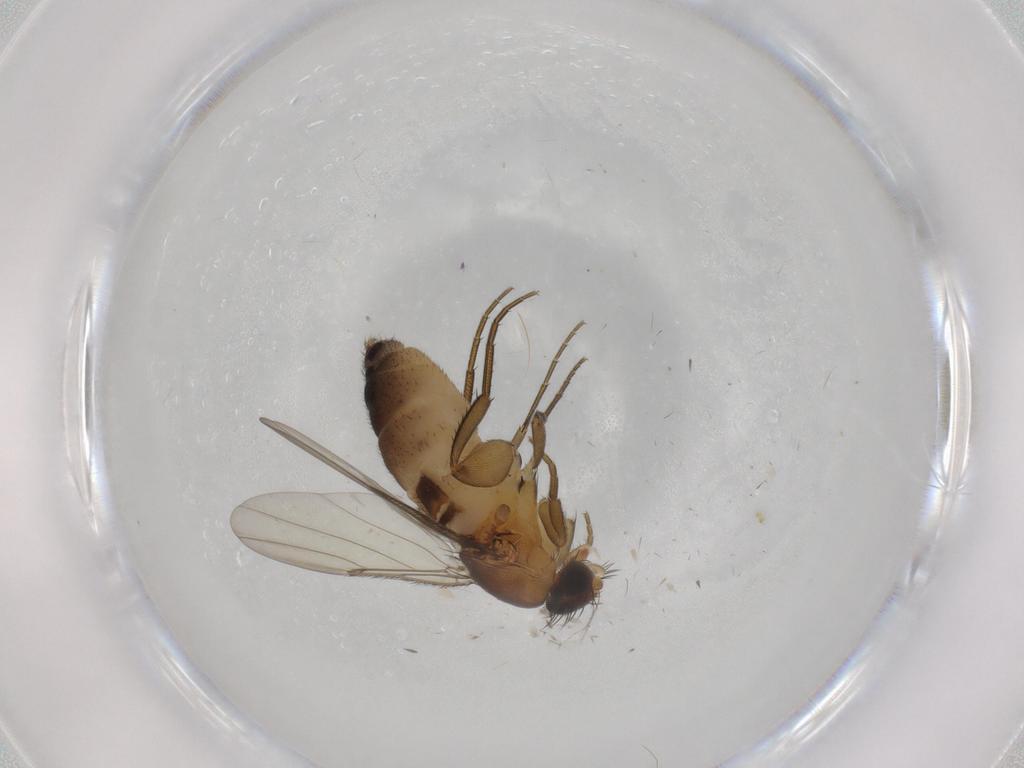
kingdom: Animalia
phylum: Arthropoda
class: Insecta
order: Diptera
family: Phoridae
